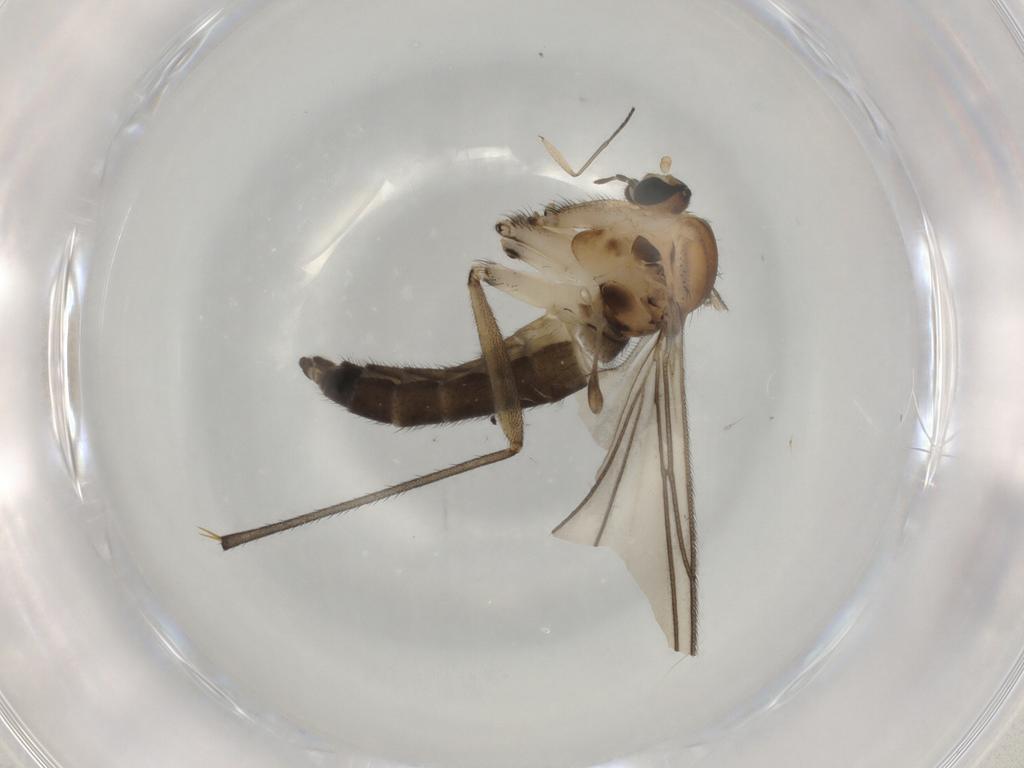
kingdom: Animalia
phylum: Arthropoda
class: Insecta
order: Diptera
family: Sciaridae
